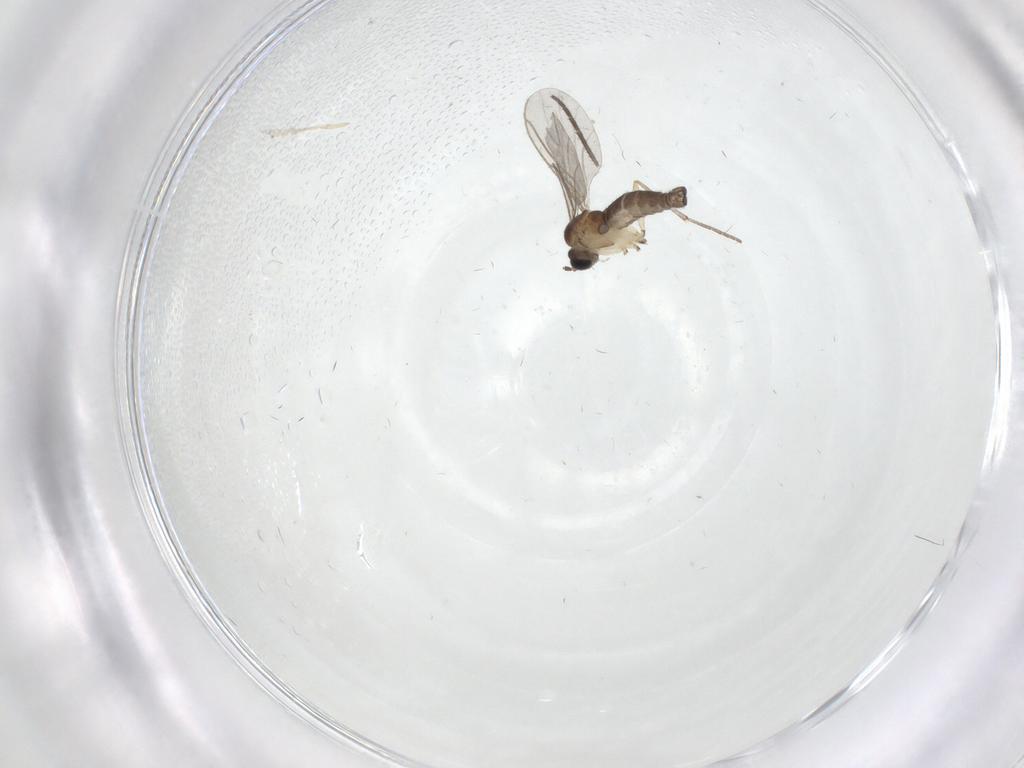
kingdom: Animalia
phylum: Arthropoda
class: Insecta
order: Diptera
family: Sciaridae
